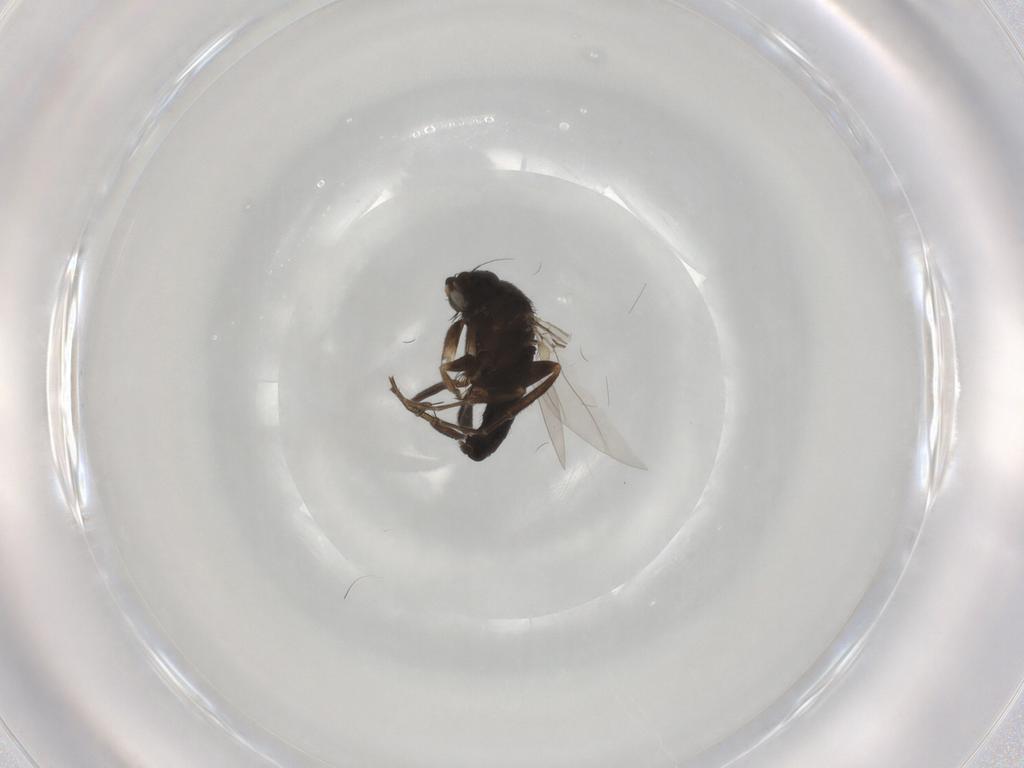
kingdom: Animalia
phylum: Arthropoda
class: Insecta
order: Diptera
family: Phoridae
